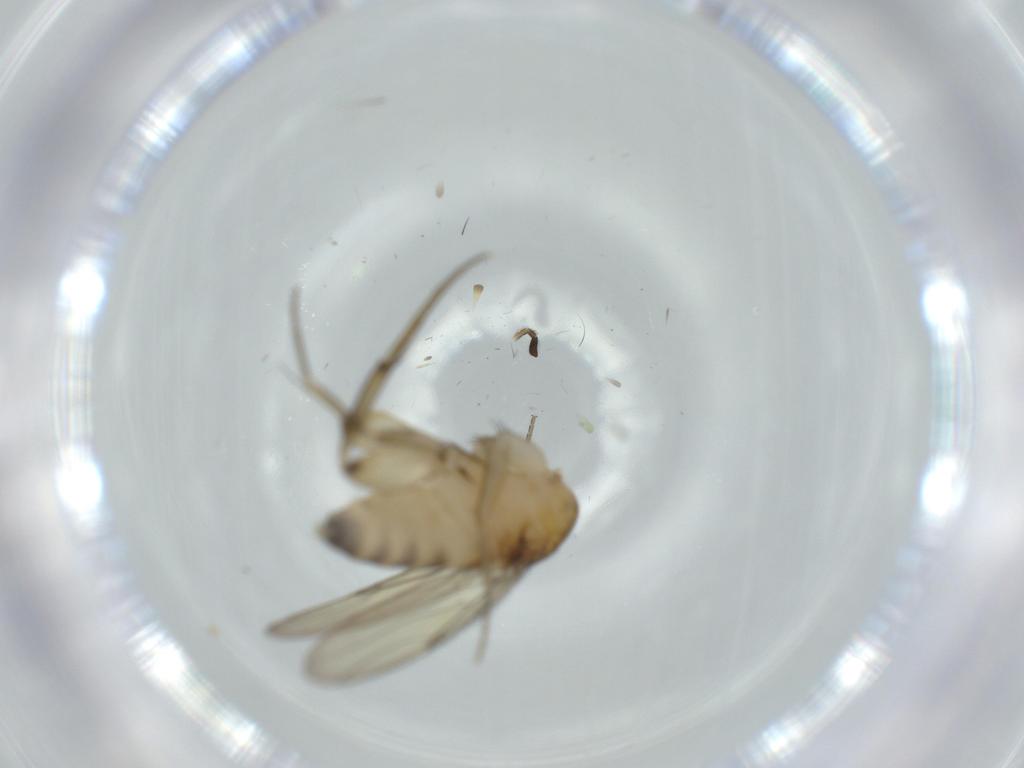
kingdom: Animalia
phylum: Arthropoda
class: Insecta
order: Diptera
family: Phoridae
